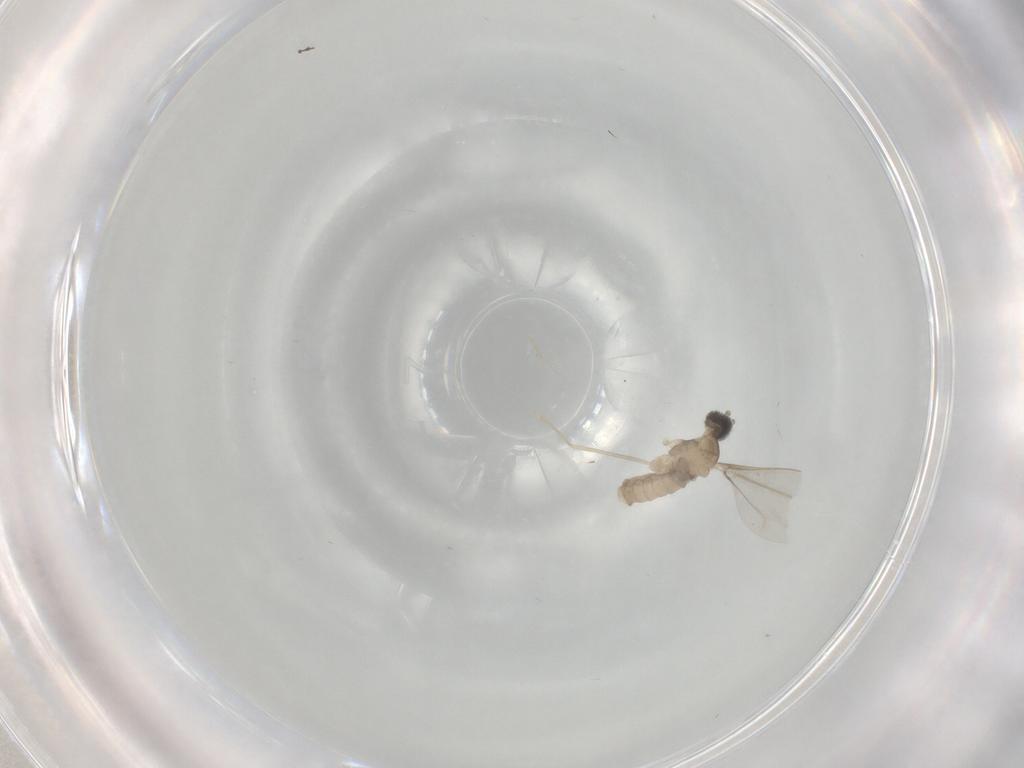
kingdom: Animalia
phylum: Arthropoda
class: Insecta
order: Diptera
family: Cecidomyiidae
